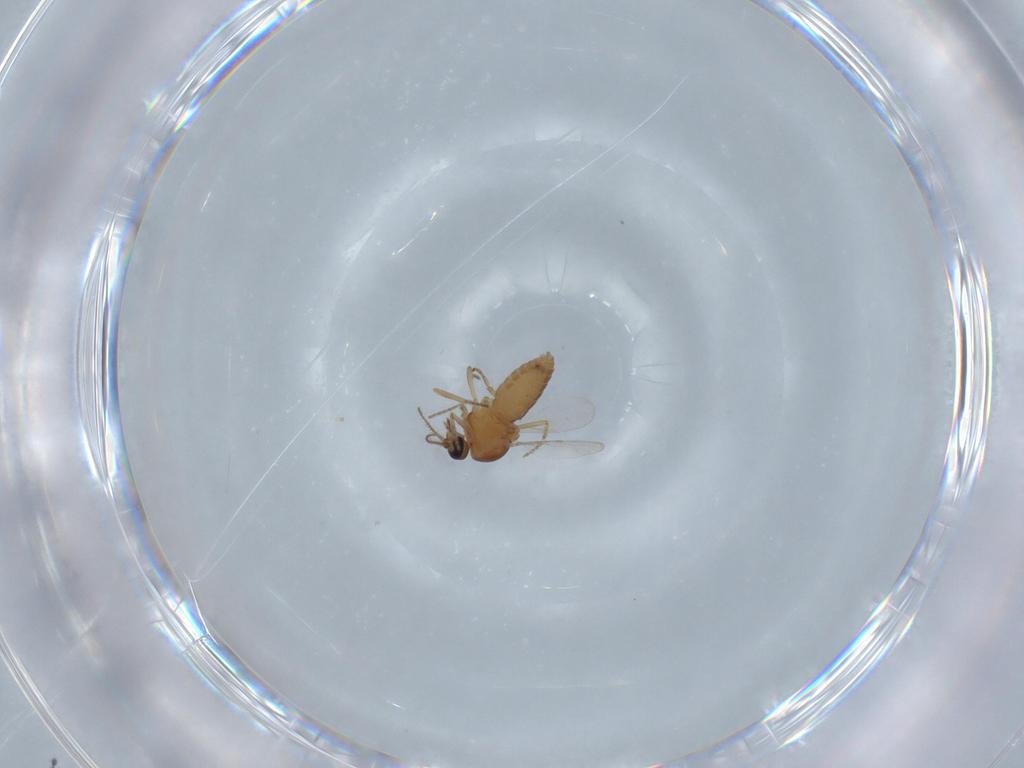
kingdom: Animalia
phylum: Arthropoda
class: Insecta
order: Diptera
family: Ceratopogonidae
